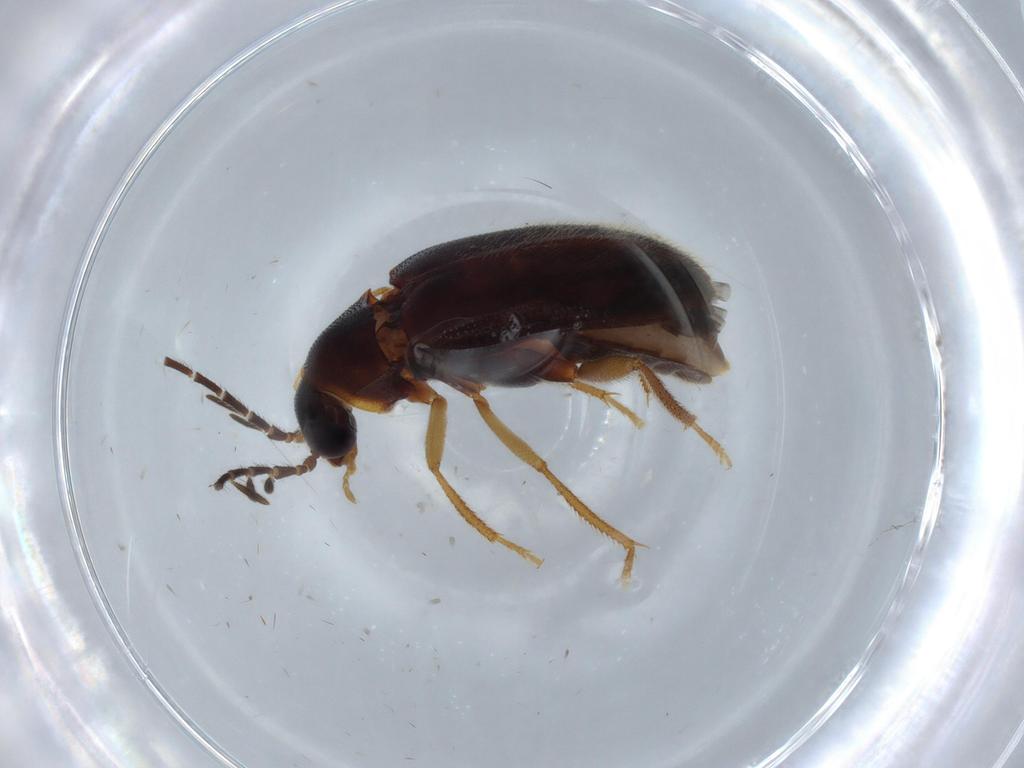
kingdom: Animalia
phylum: Arthropoda
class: Insecta
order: Coleoptera
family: Ptilodactylidae
